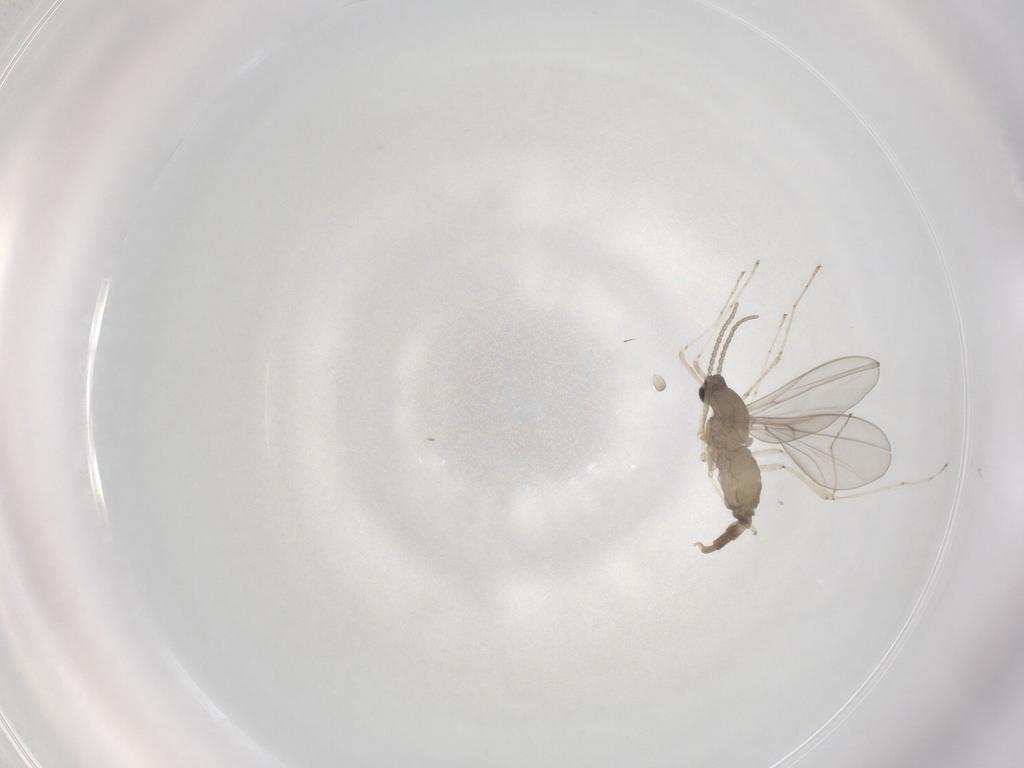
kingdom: Animalia
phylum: Arthropoda
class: Insecta
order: Diptera
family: Cecidomyiidae
